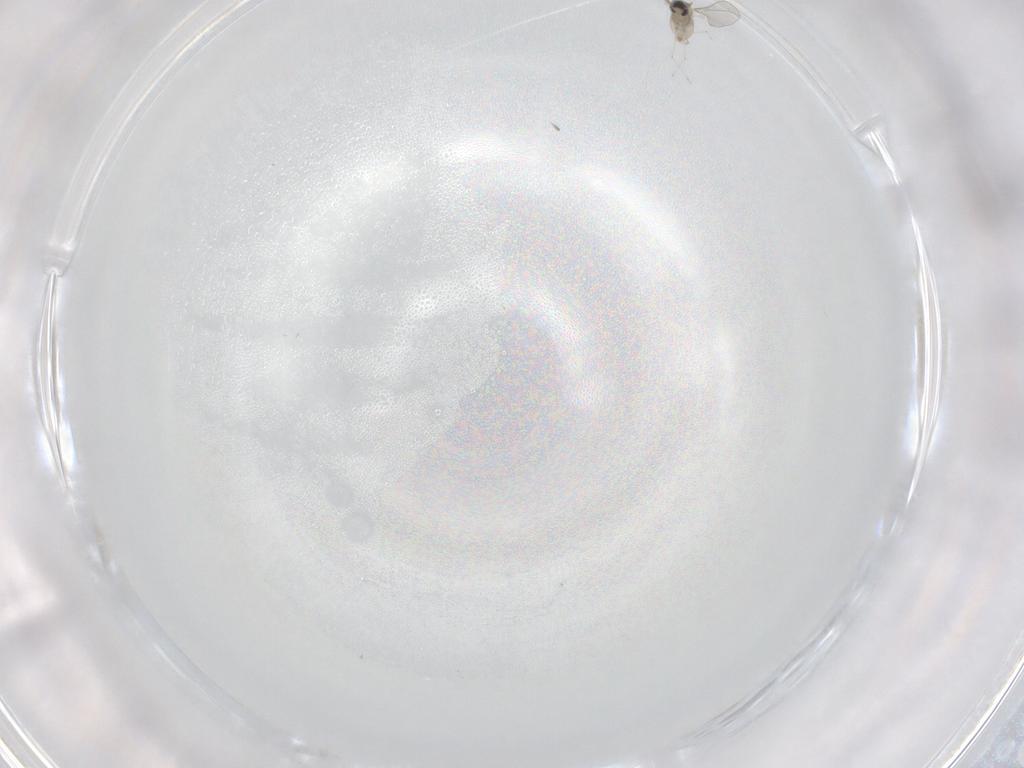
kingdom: Animalia
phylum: Arthropoda
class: Insecta
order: Diptera
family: Cecidomyiidae
